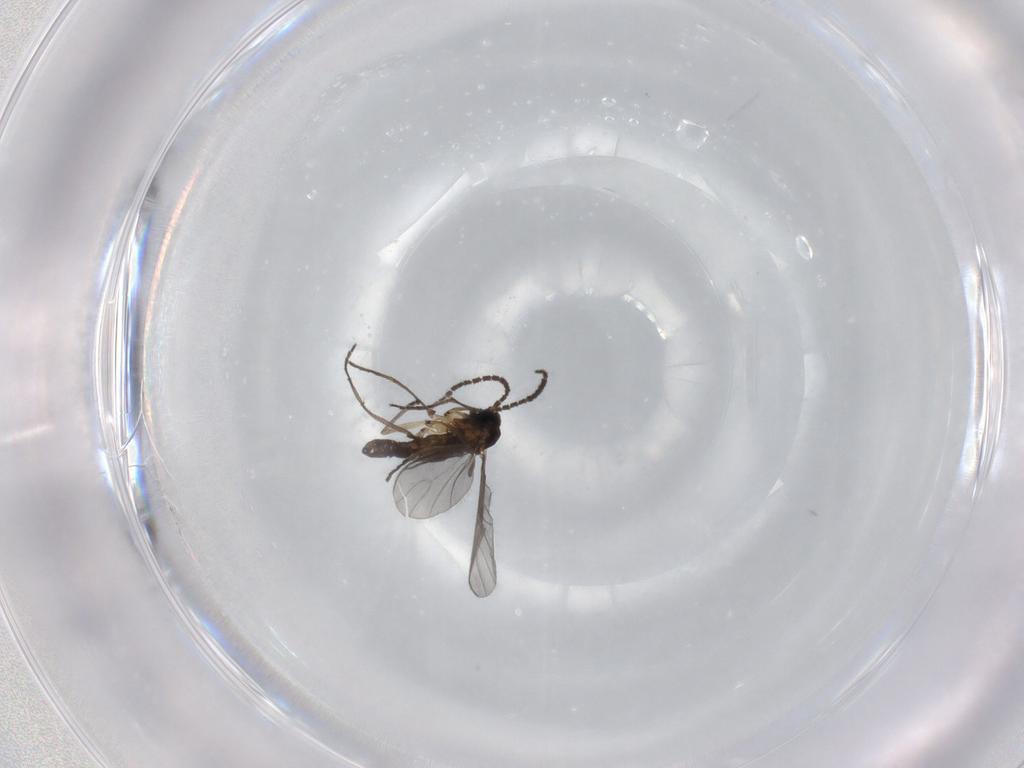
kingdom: Animalia
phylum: Arthropoda
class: Insecta
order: Diptera
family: Sciaridae
